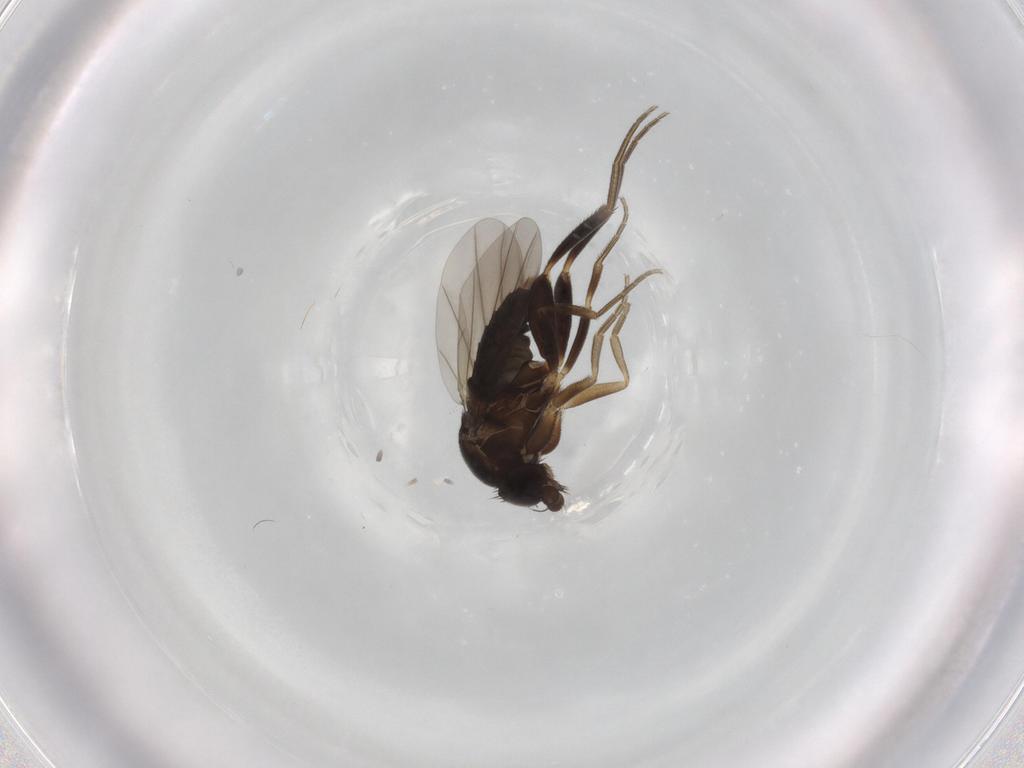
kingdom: Animalia
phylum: Arthropoda
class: Insecta
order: Diptera
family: Phoridae
